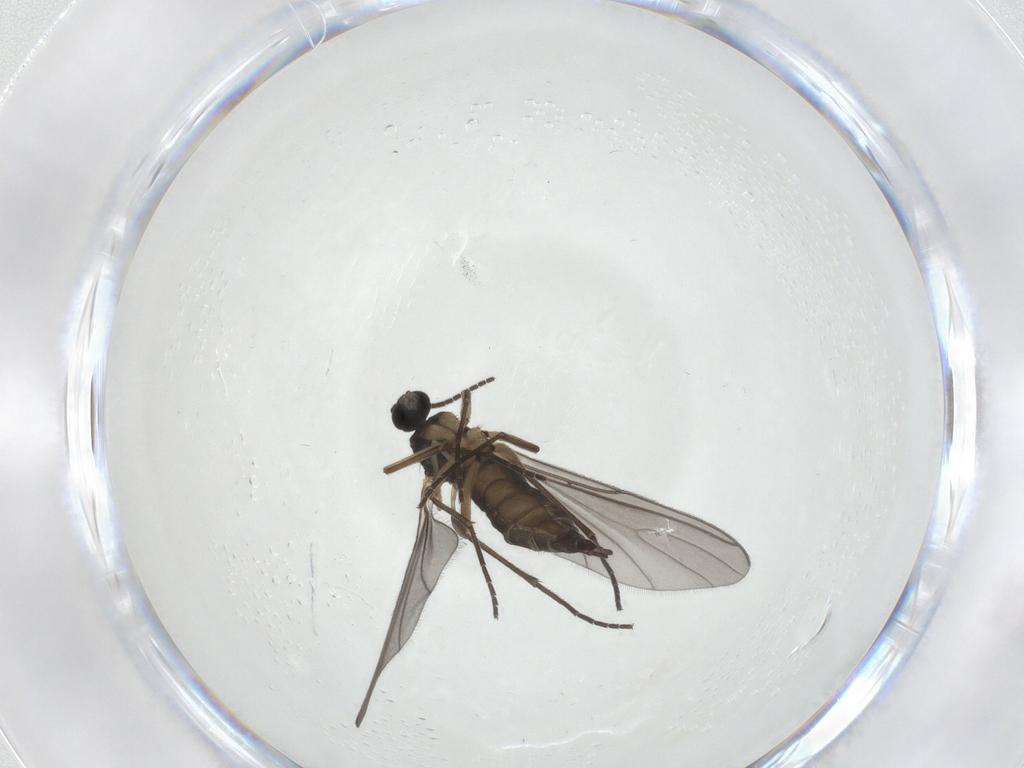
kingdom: Animalia
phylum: Arthropoda
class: Insecta
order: Diptera
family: Sciaridae
